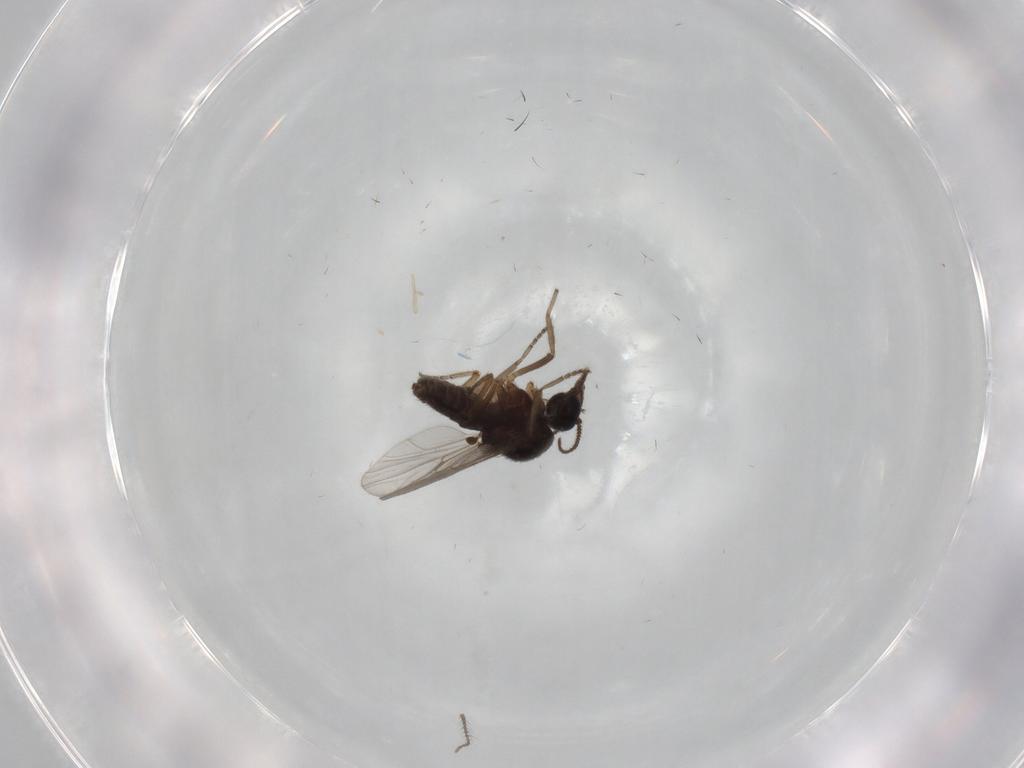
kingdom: Animalia
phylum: Arthropoda
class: Insecta
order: Diptera
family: Ceratopogonidae
